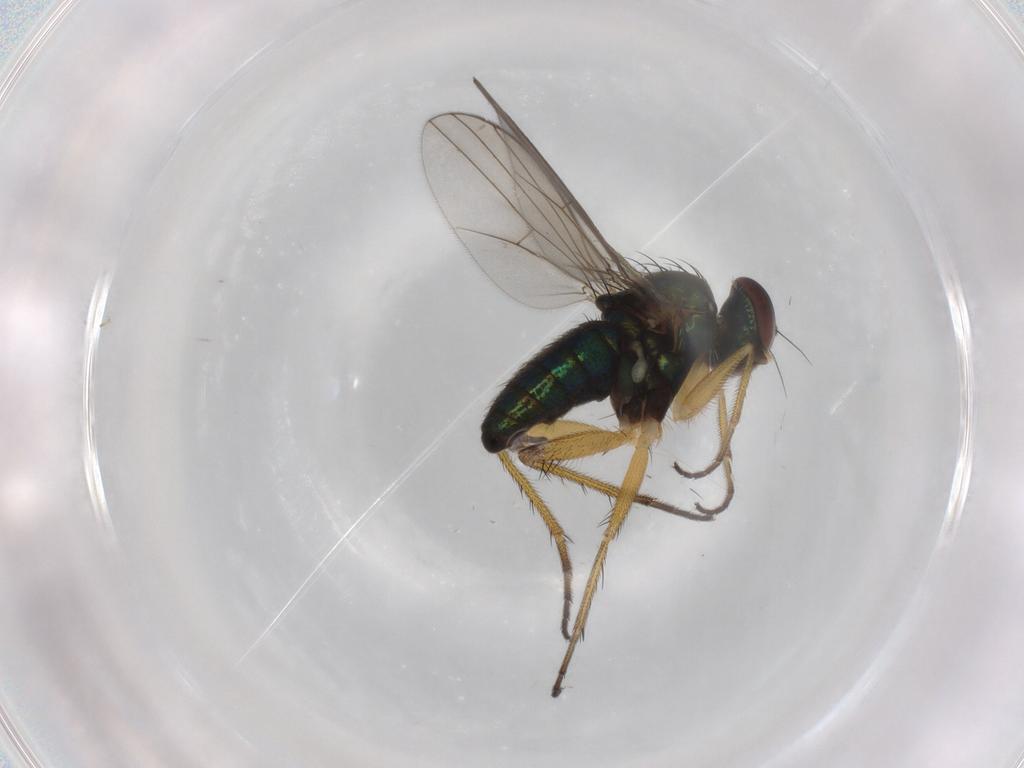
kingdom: Animalia
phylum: Arthropoda
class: Insecta
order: Diptera
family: Dolichopodidae
